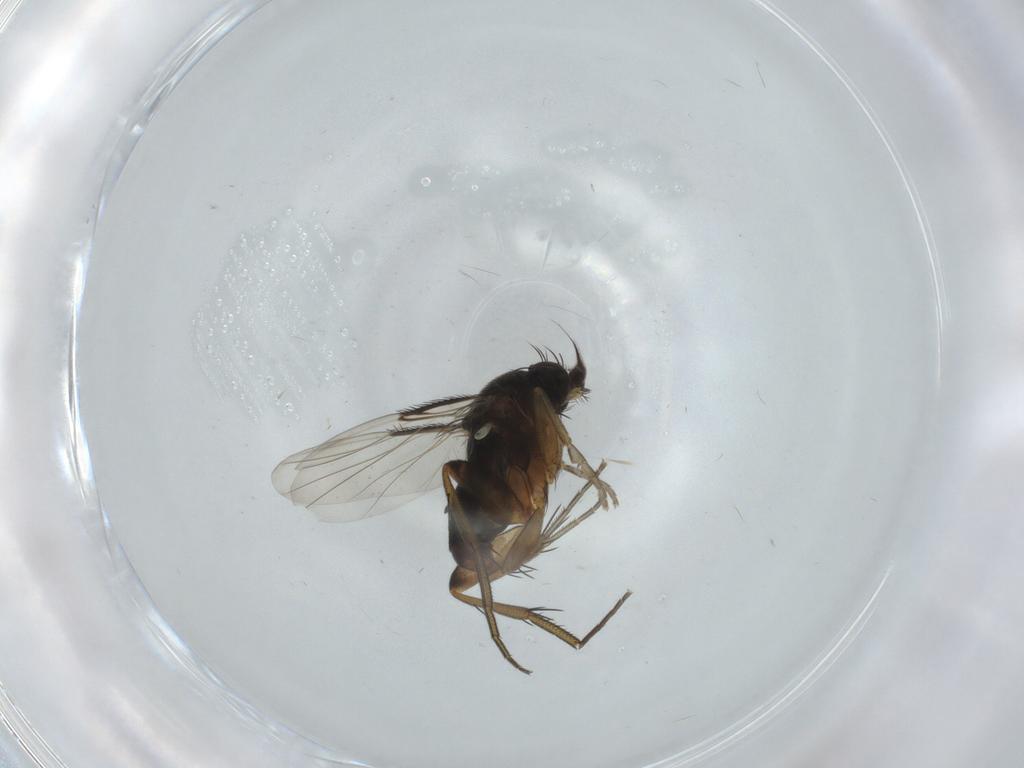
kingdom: Animalia
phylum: Arthropoda
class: Insecta
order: Diptera
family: Phoridae
